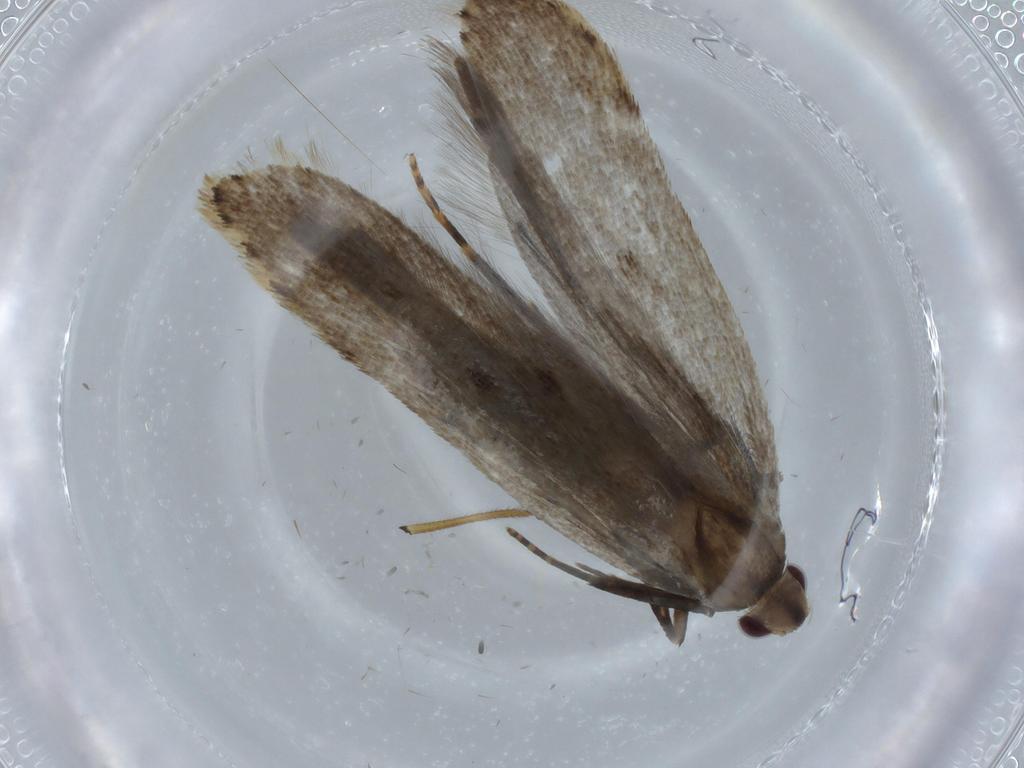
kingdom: Animalia
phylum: Arthropoda
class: Insecta
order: Lepidoptera
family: Gelechiidae
